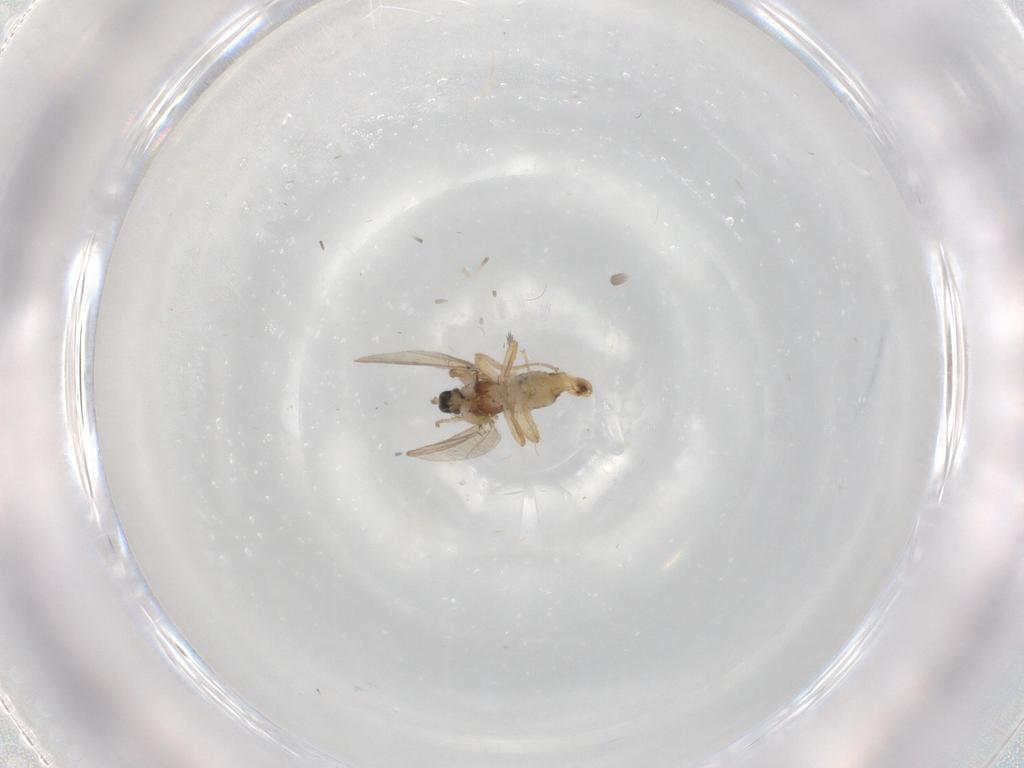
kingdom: Animalia
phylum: Arthropoda
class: Insecta
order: Diptera
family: Hybotidae
